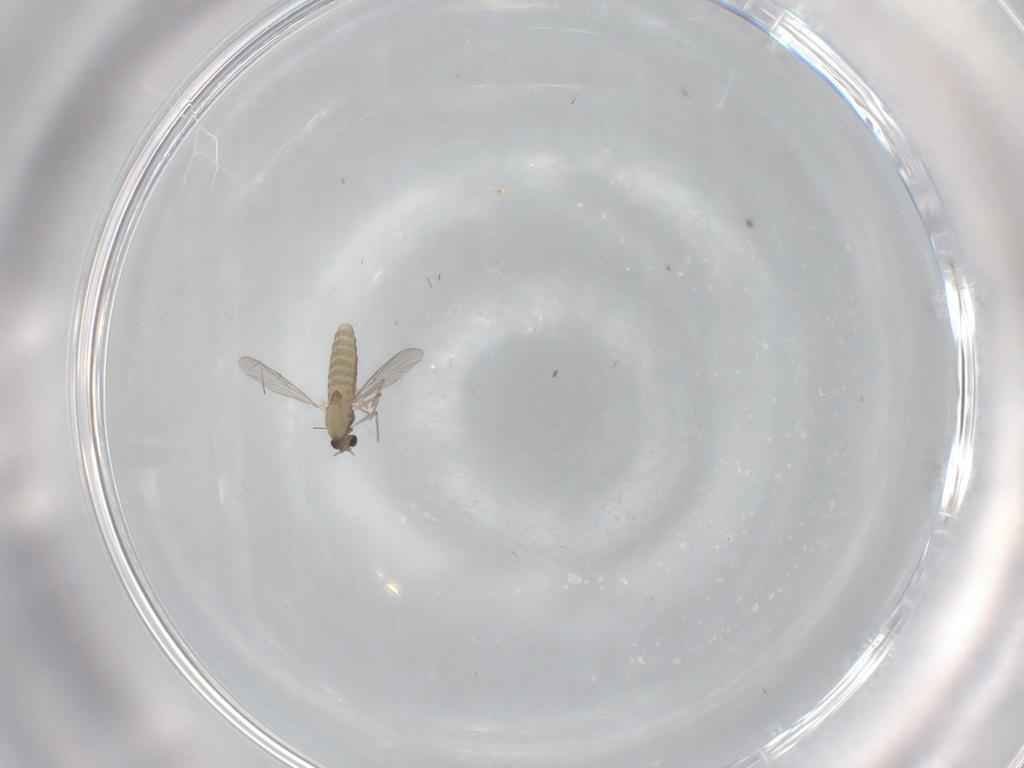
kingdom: Animalia
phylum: Arthropoda
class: Insecta
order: Diptera
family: Chironomidae
